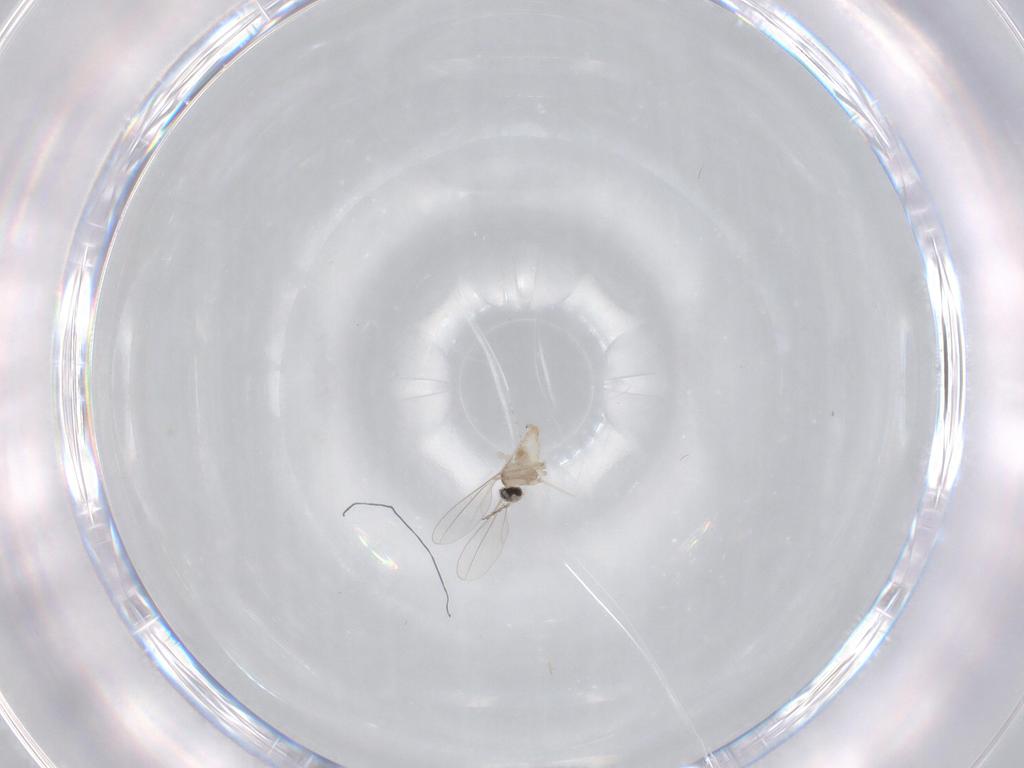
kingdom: Animalia
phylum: Arthropoda
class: Insecta
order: Diptera
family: Cecidomyiidae
